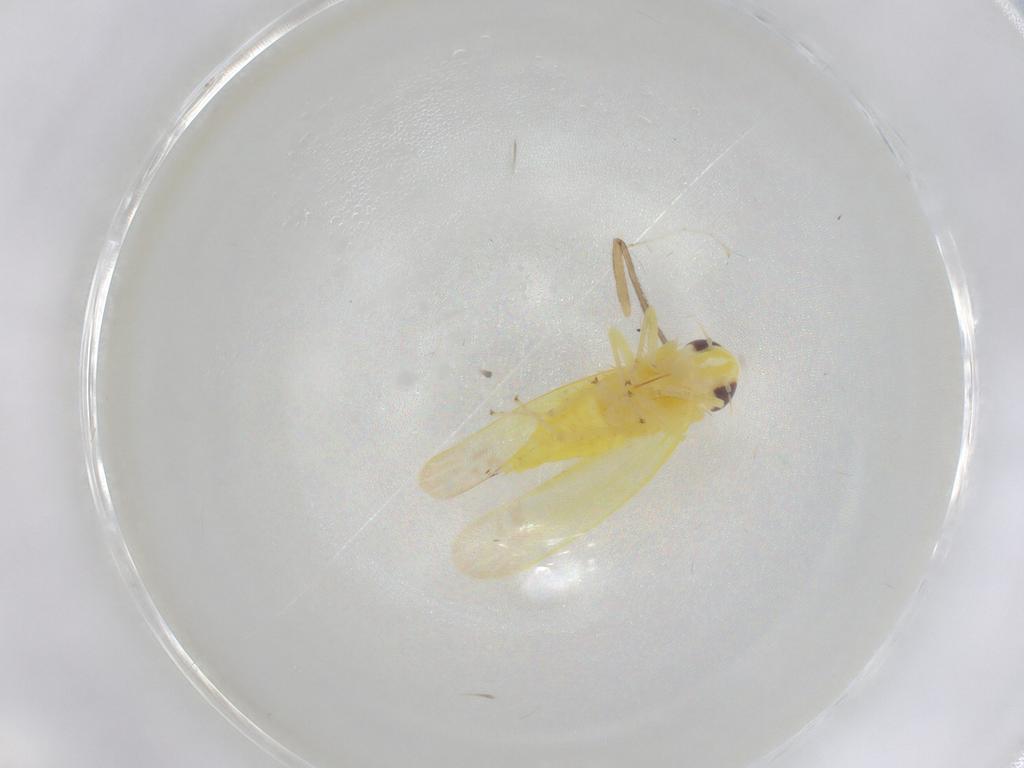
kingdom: Animalia
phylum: Arthropoda
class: Insecta
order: Hemiptera
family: Cicadellidae
